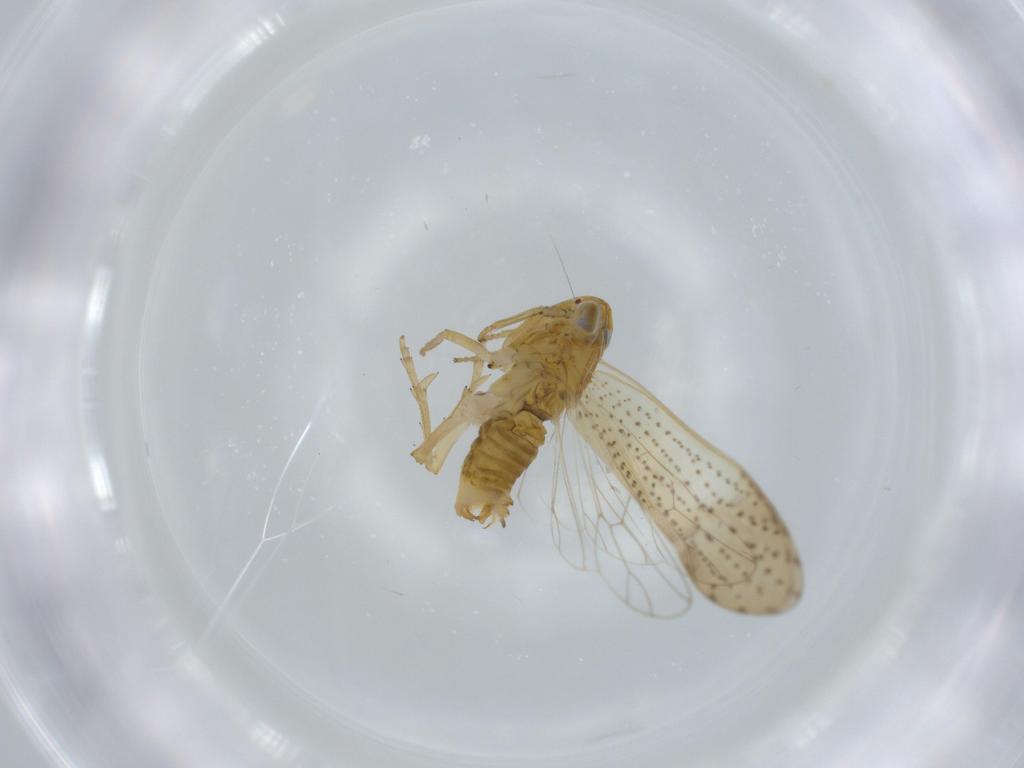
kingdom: Animalia
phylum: Arthropoda
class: Insecta
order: Hemiptera
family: Delphacidae
